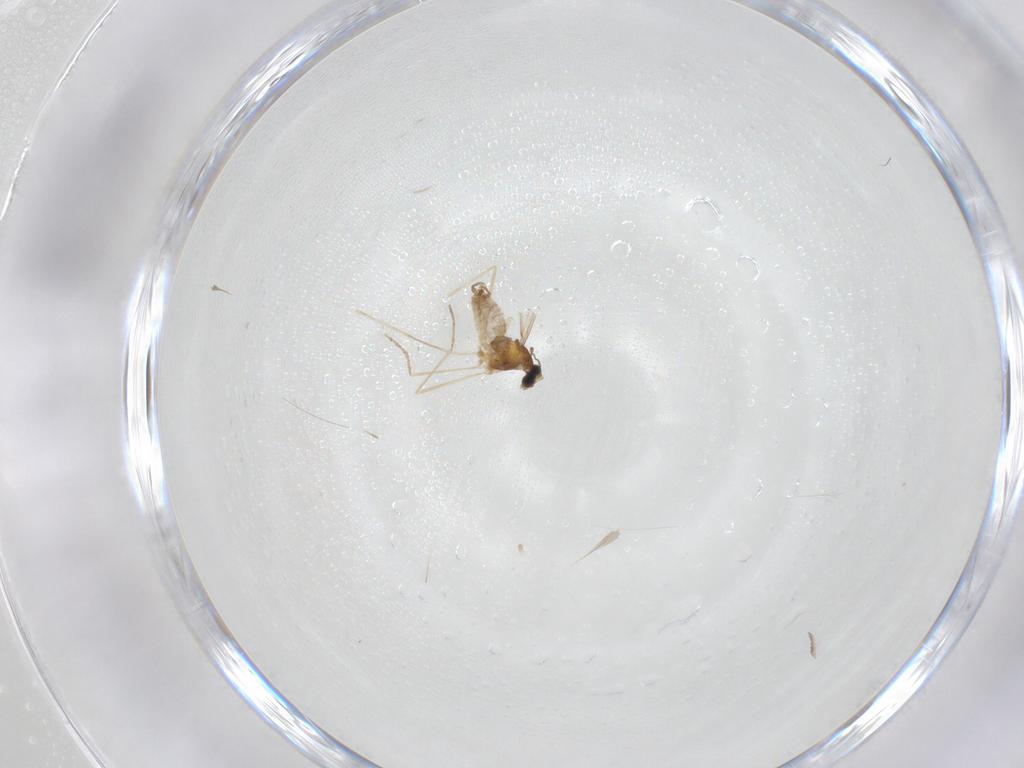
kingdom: Animalia
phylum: Arthropoda
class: Insecta
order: Diptera
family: Cecidomyiidae
